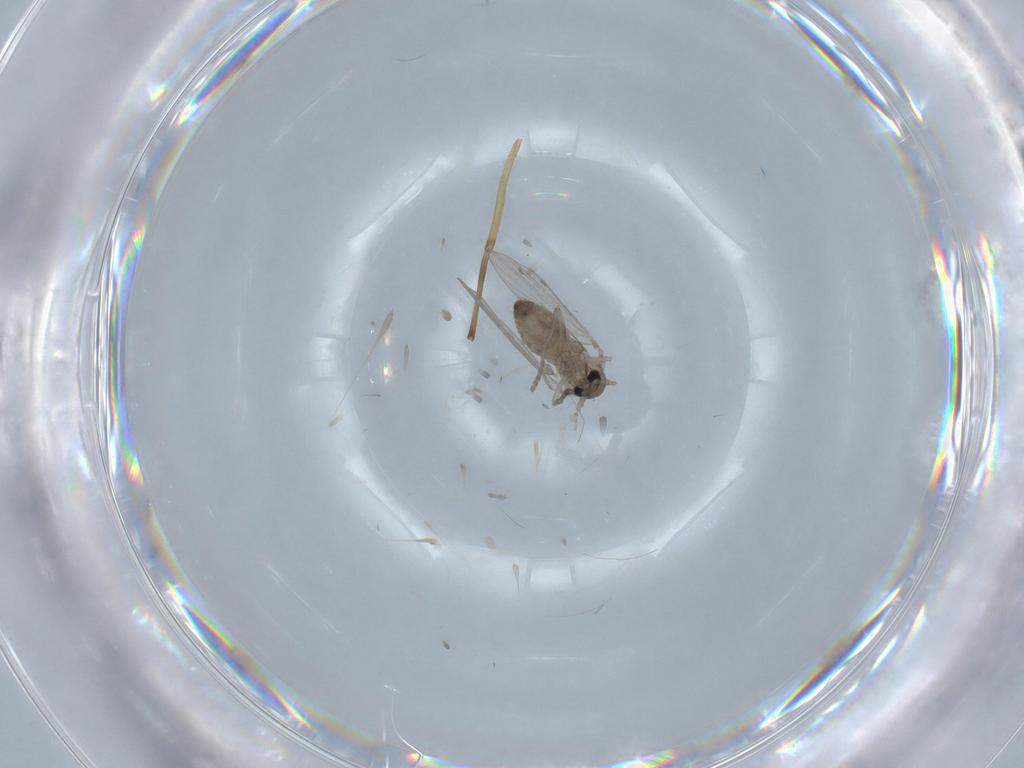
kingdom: Animalia
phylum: Arthropoda
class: Insecta
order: Diptera
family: Psychodidae
